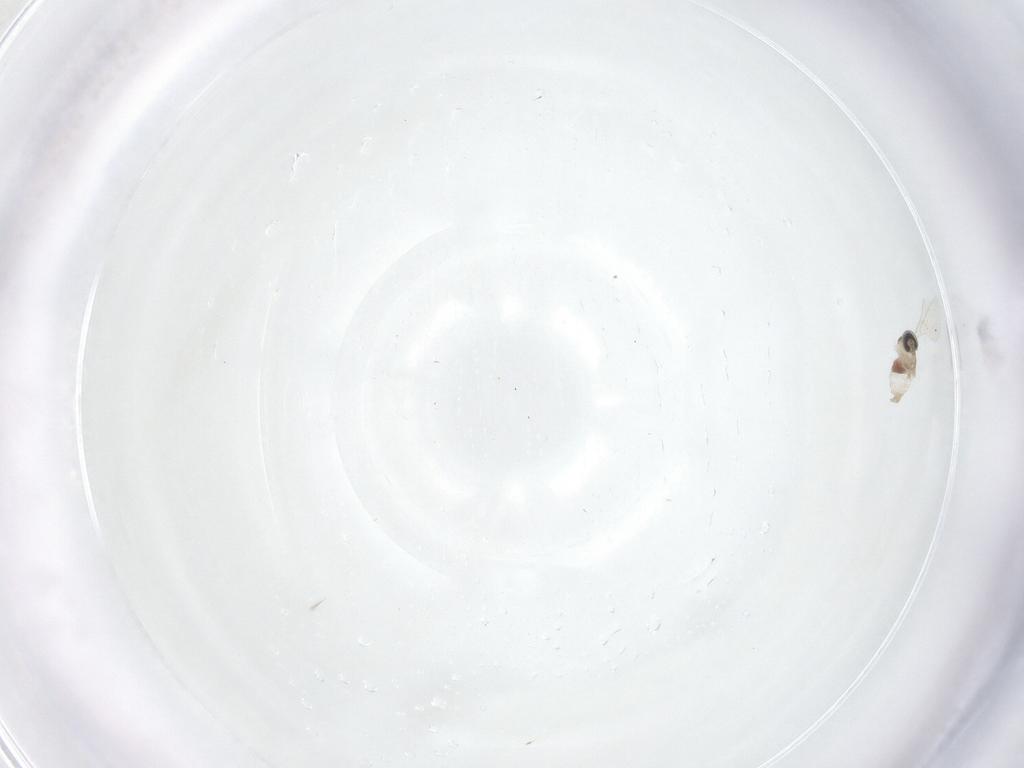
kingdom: Animalia
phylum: Arthropoda
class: Insecta
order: Diptera
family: Cecidomyiidae
